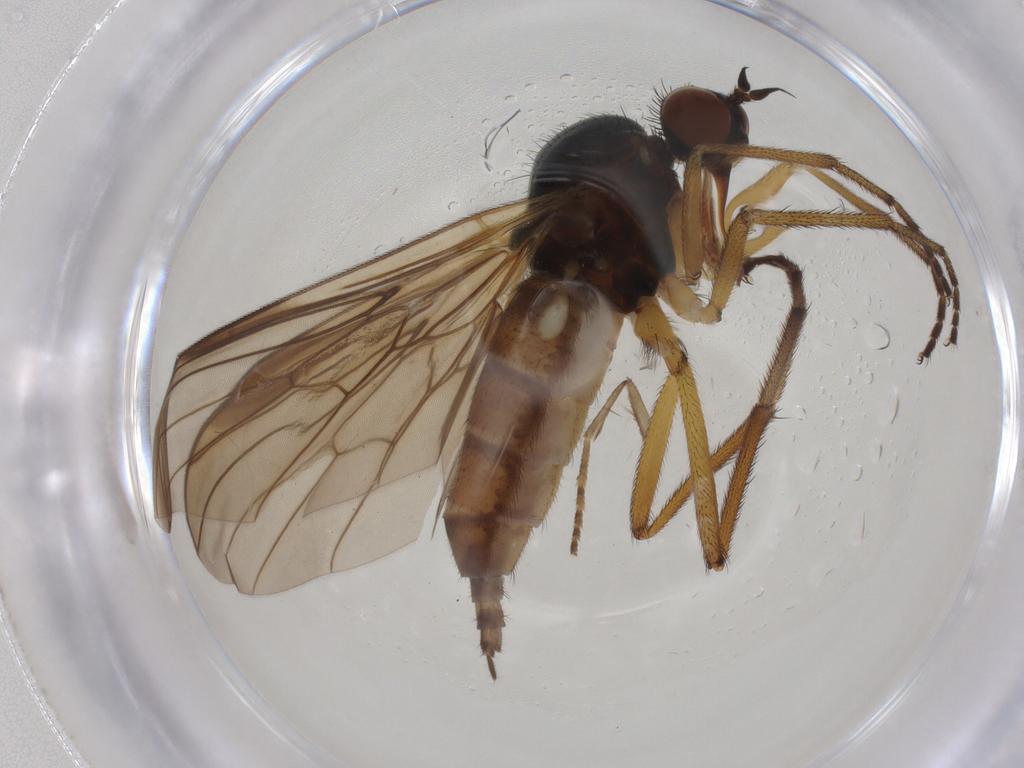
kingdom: Animalia
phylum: Arthropoda
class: Insecta
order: Diptera
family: Empididae
